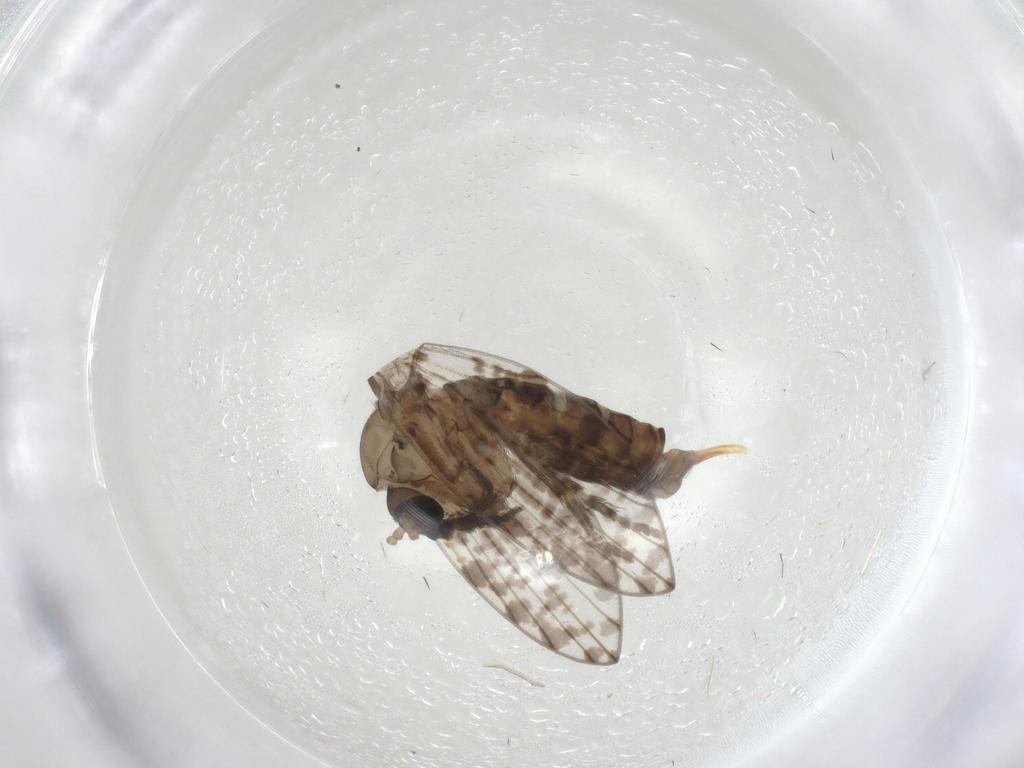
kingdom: Animalia
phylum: Arthropoda
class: Insecta
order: Diptera
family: Psychodidae
